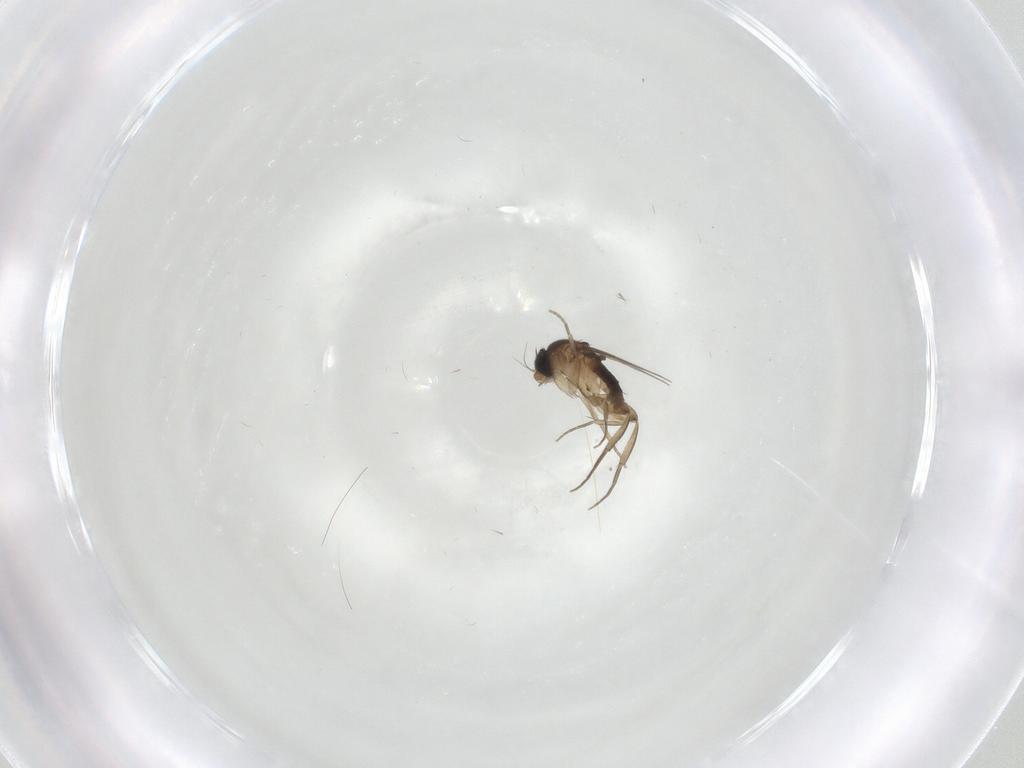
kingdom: Animalia
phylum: Arthropoda
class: Insecta
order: Diptera
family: Phoridae
